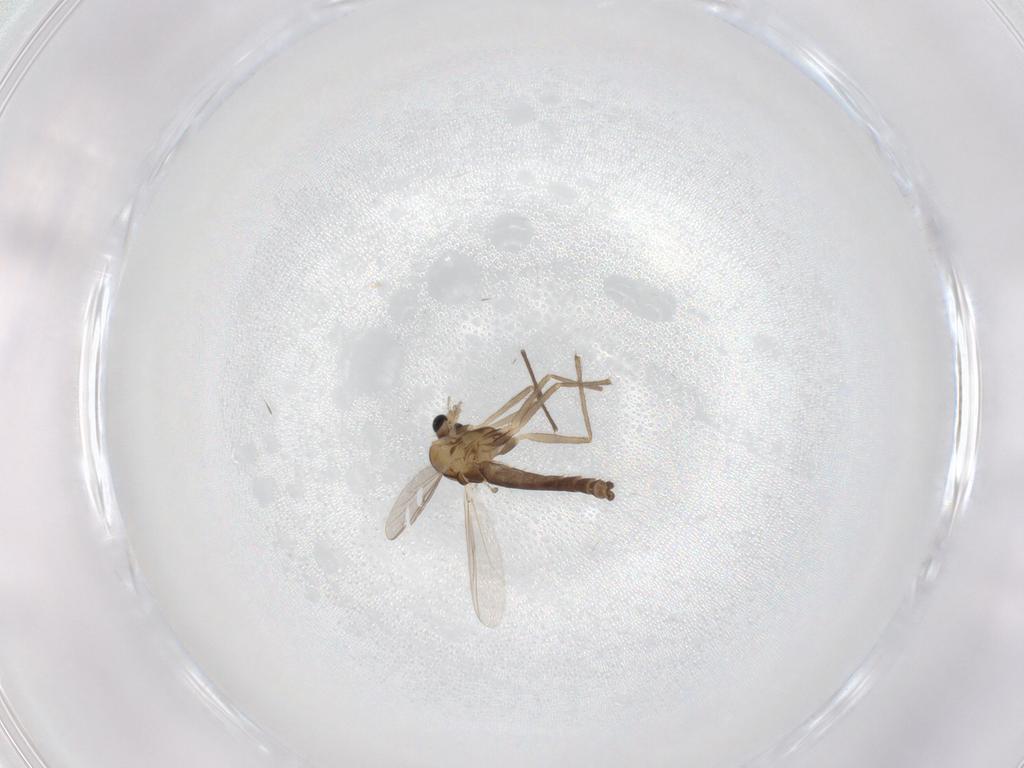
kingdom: Animalia
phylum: Arthropoda
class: Insecta
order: Diptera
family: Chironomidae
